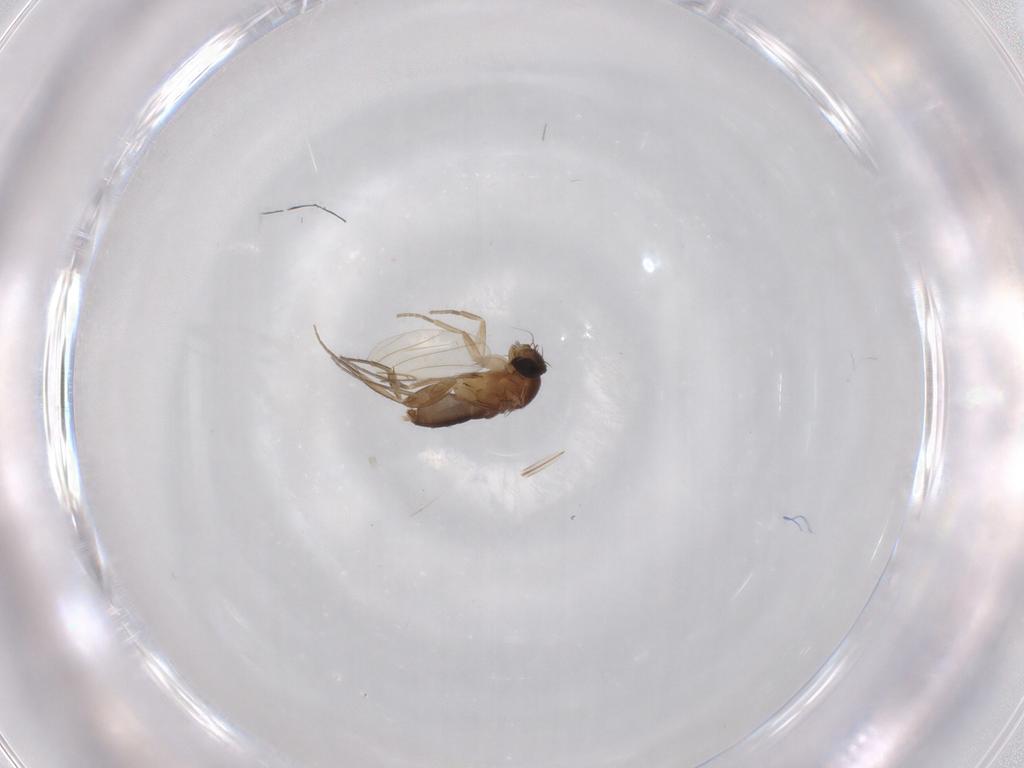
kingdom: Animalia
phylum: Arthropoda
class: Insecta
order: Diptera
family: Phoridae
